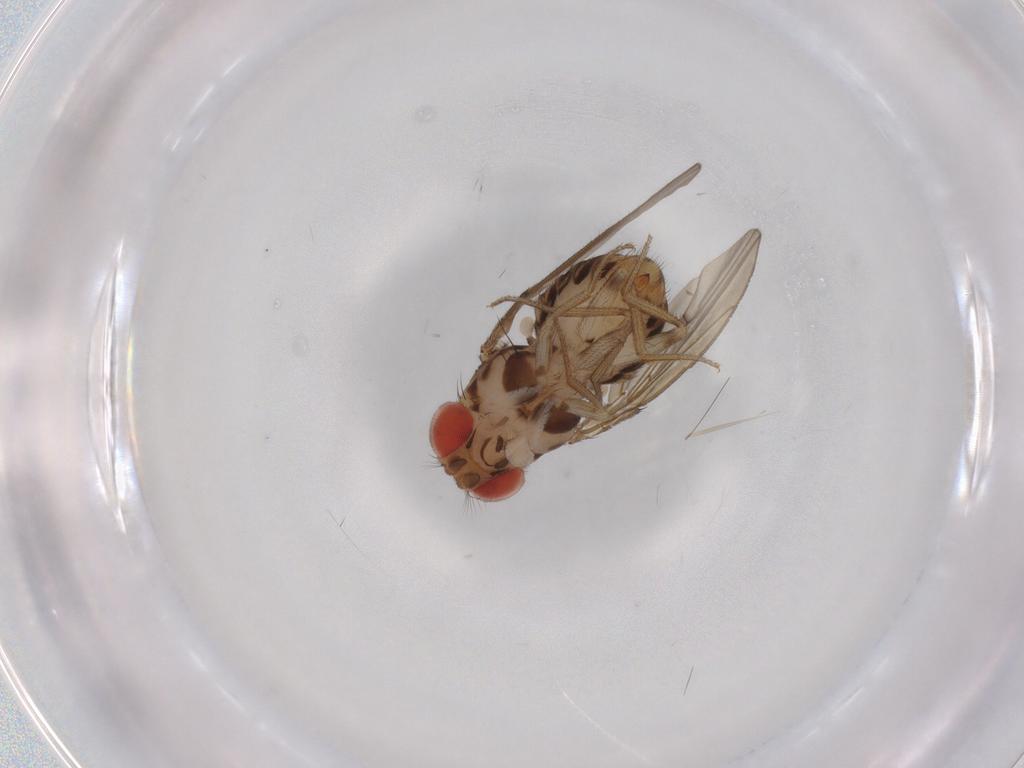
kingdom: Animalia
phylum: Arthropoda
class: Insecta
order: Diptera
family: Drosophilidae
